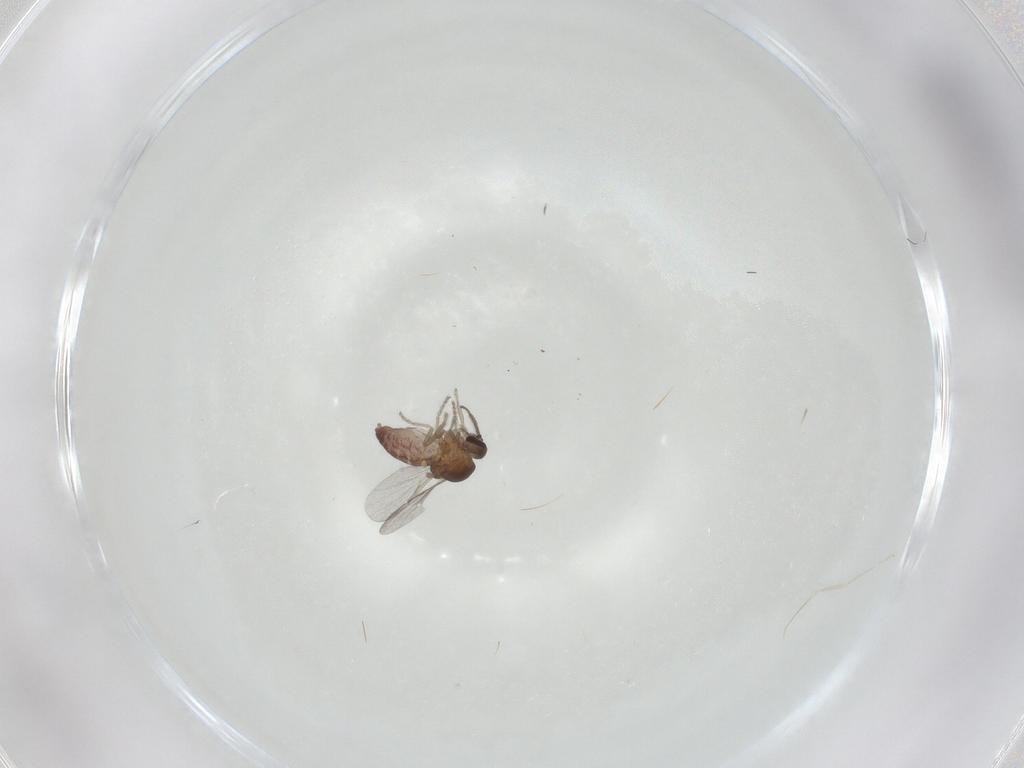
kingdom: Animalia
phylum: Arthropoda
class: Insecta
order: Diptera
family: Ceratopogonidae
